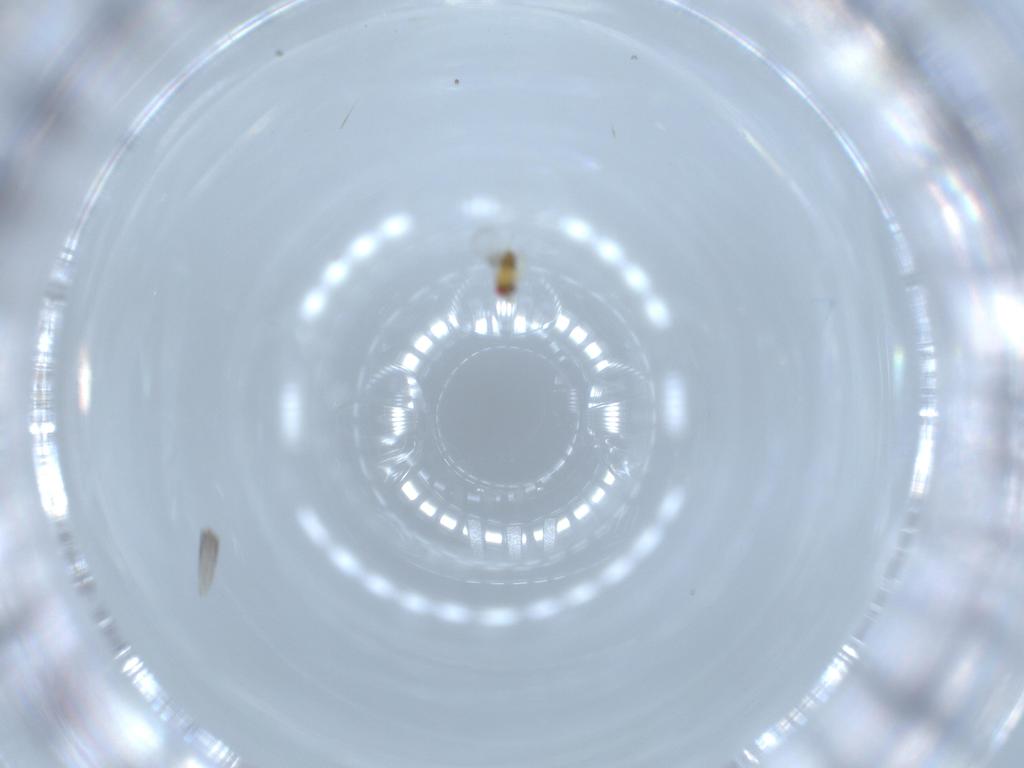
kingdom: Animalia
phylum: Arthropoda
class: Insecta
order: Hymenoptera
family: Trichogrammatidae
